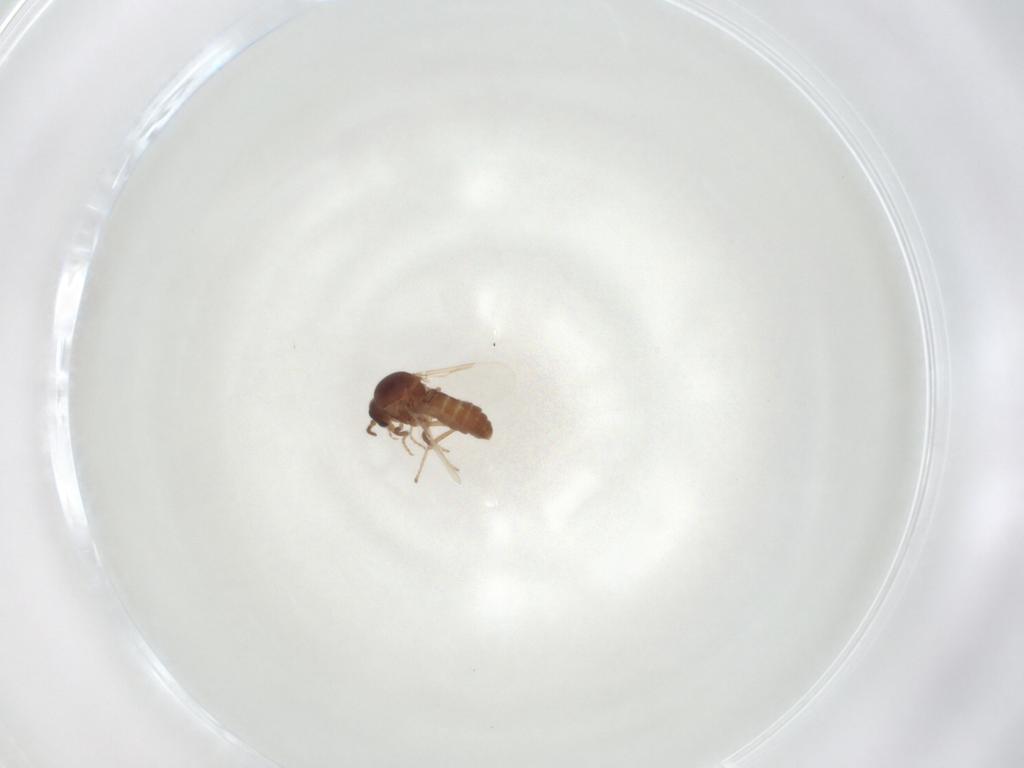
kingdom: Animalia
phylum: Arthropoda
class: Insecta
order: Diptera
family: Ceratopogonidae
